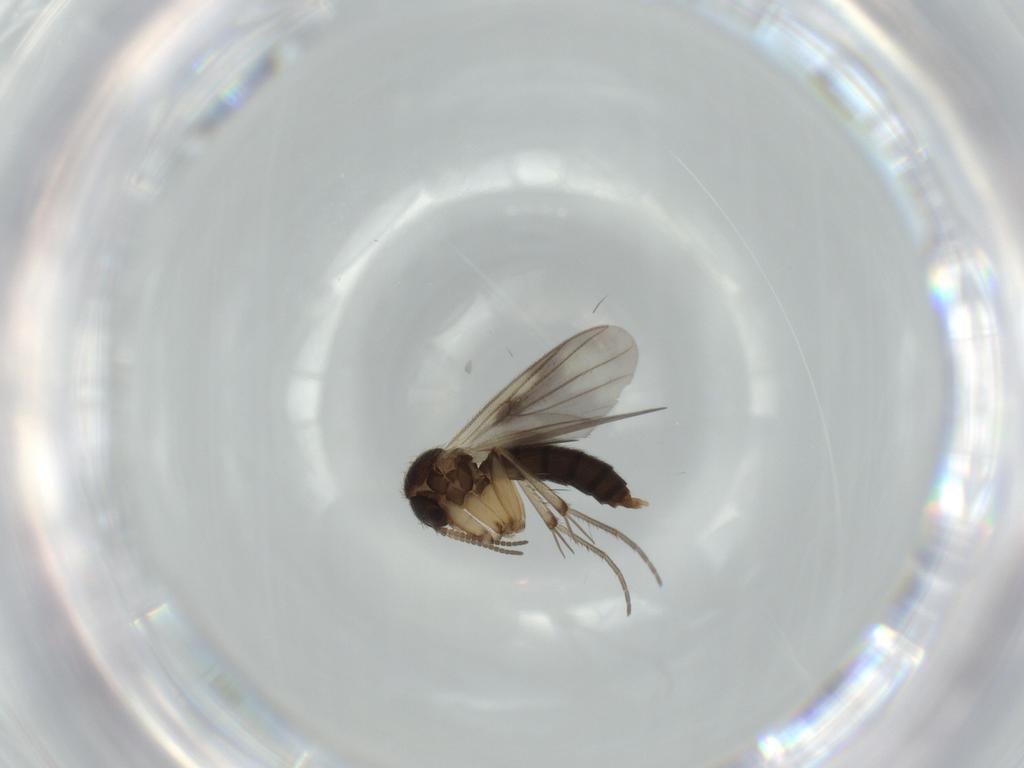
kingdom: Animalia
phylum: Arthropoda
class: Insecta
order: Diptera
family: Mycetophilidae
